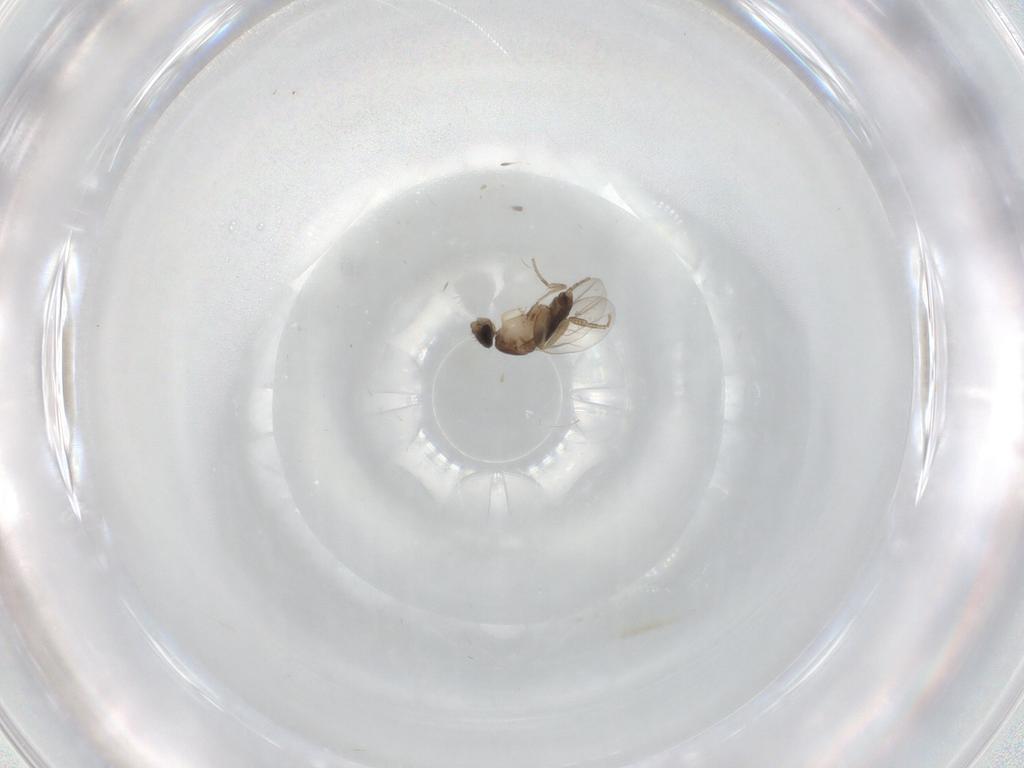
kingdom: Animalia
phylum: Arthropoda
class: Insecta
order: Diptera
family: Phoridae
